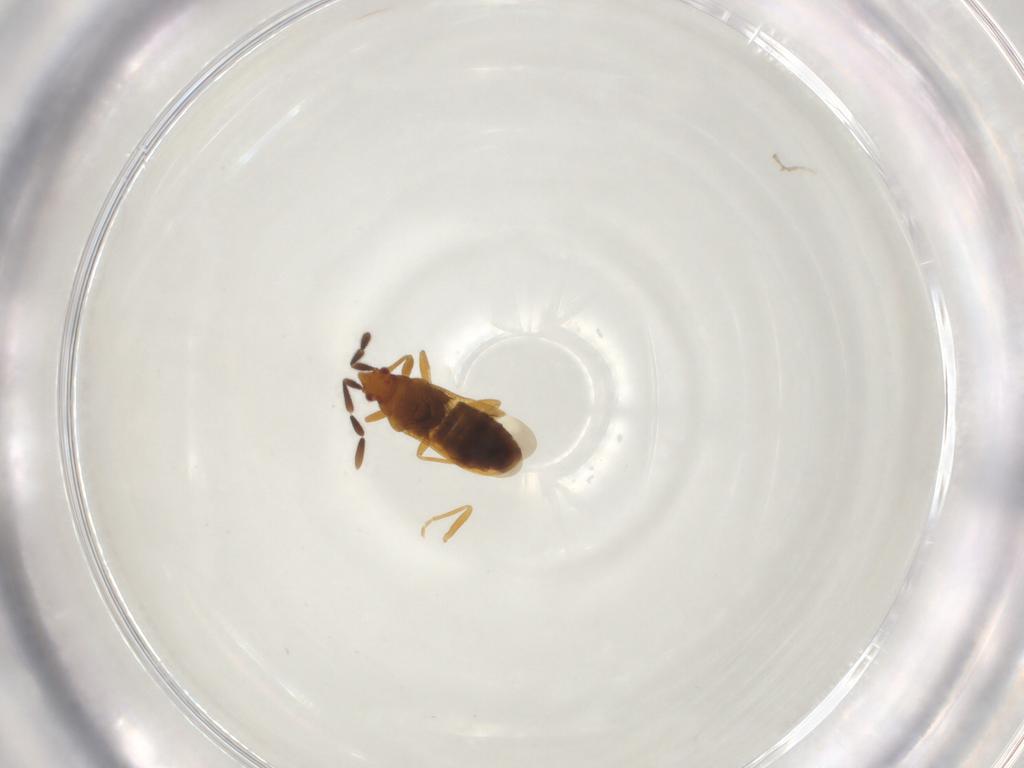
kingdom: Animalia
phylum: Arthropoda
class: Insecta
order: Hemiptera
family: Rhyparochromidae
